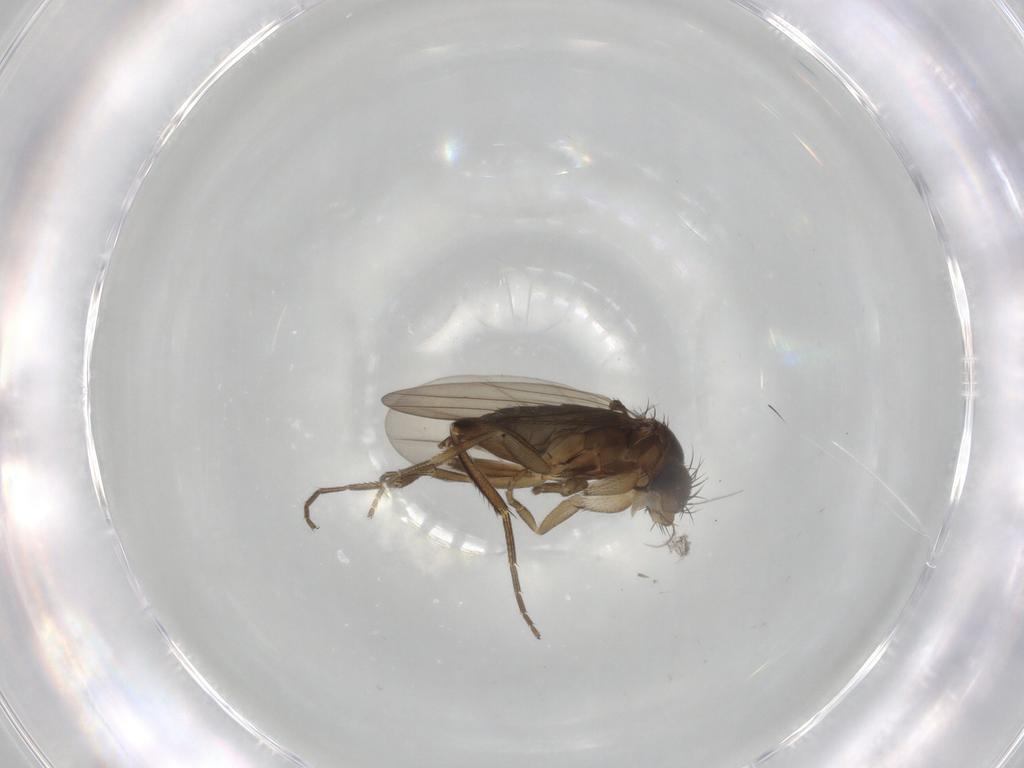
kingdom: Animalia
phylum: Arthropoda
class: Insecta
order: Diptera
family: Phoridae
